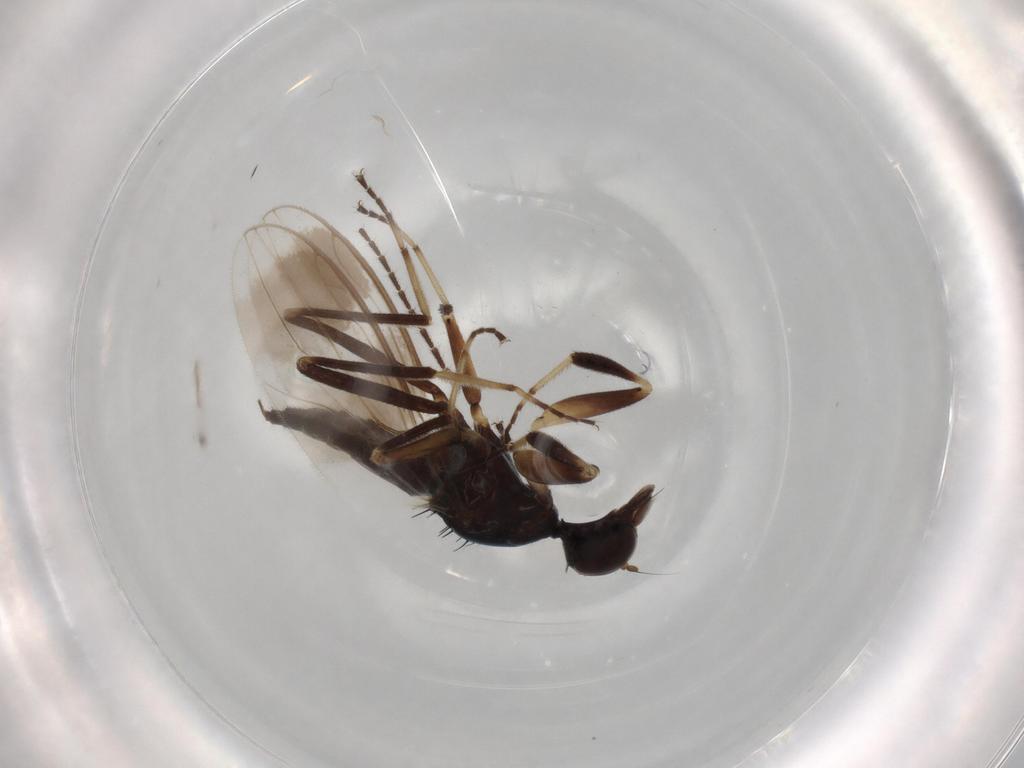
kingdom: Animalia
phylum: Arthropoda
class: Insecta
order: Diptera
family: Hybotidae
